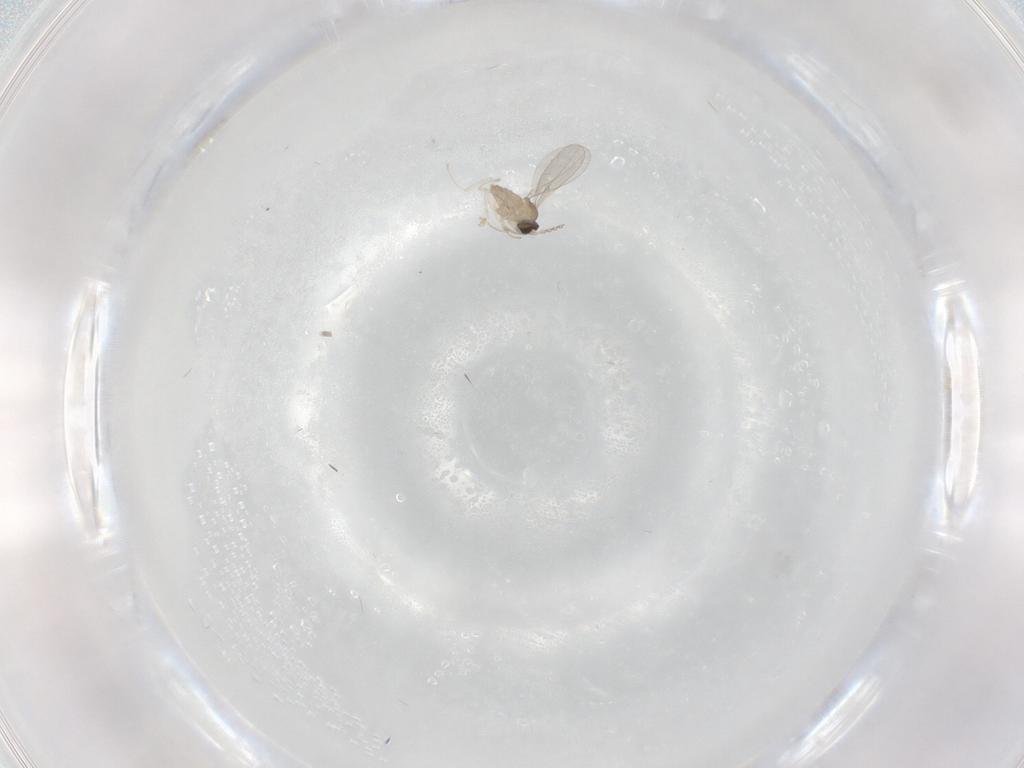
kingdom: Animalia
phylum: Arthropoda
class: Insecta
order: Diptera
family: Cecidomyiidae
